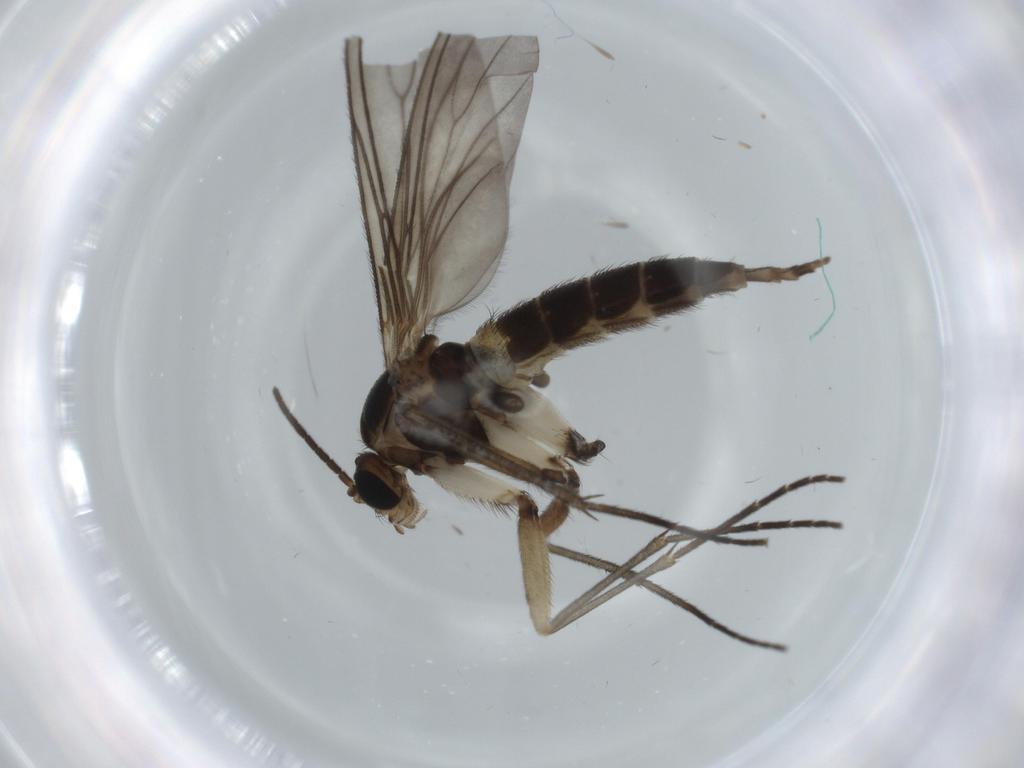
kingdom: Animalia
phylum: Arthropoda
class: Insecta
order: Diptera
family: Sciaridae
